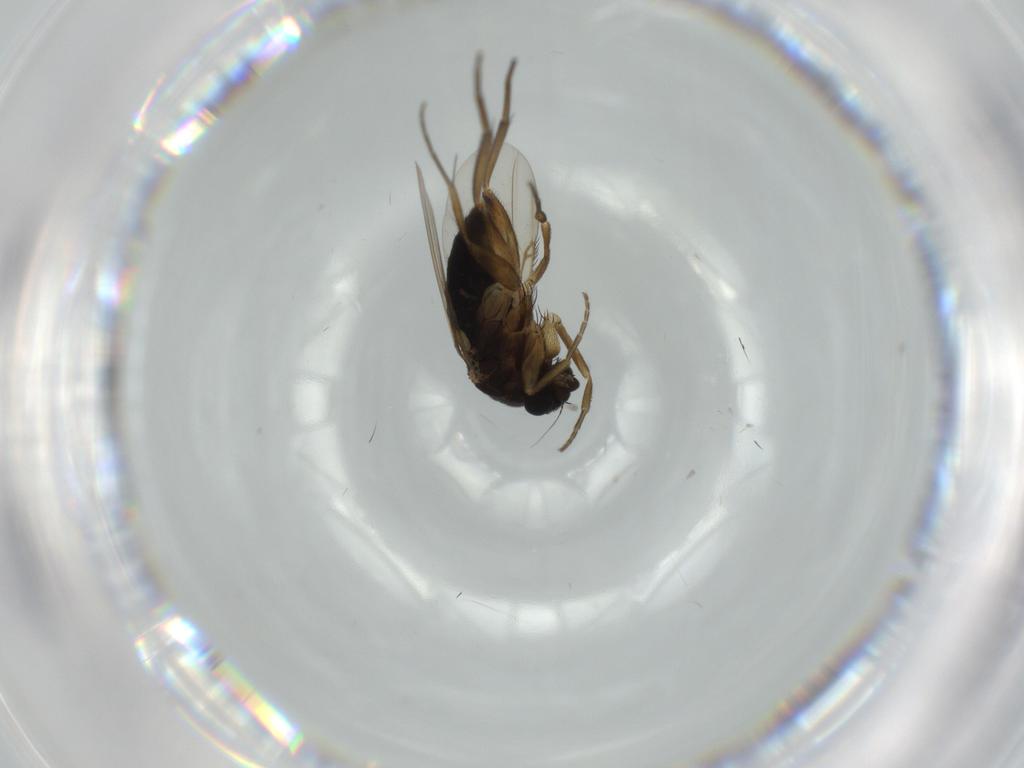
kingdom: Animalia
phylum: Arthropoda
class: Insecta
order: Diptera
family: Phoridae
